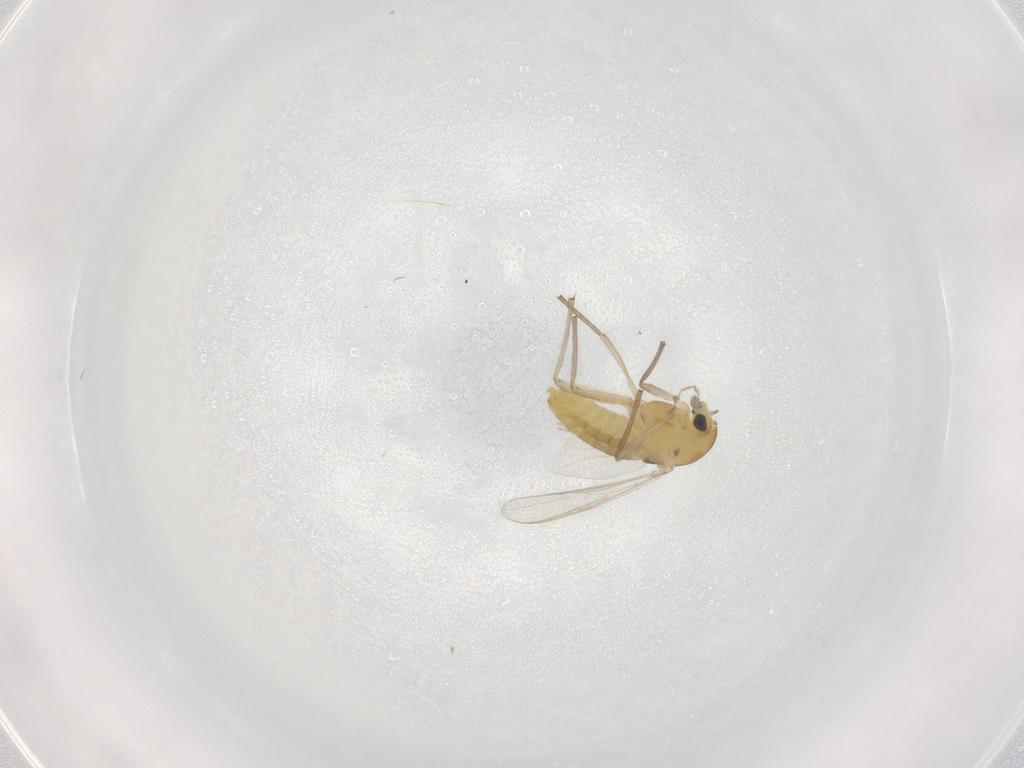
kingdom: Animalia
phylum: Arthropoda
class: Insecta
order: Diptera
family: Chironomidae
